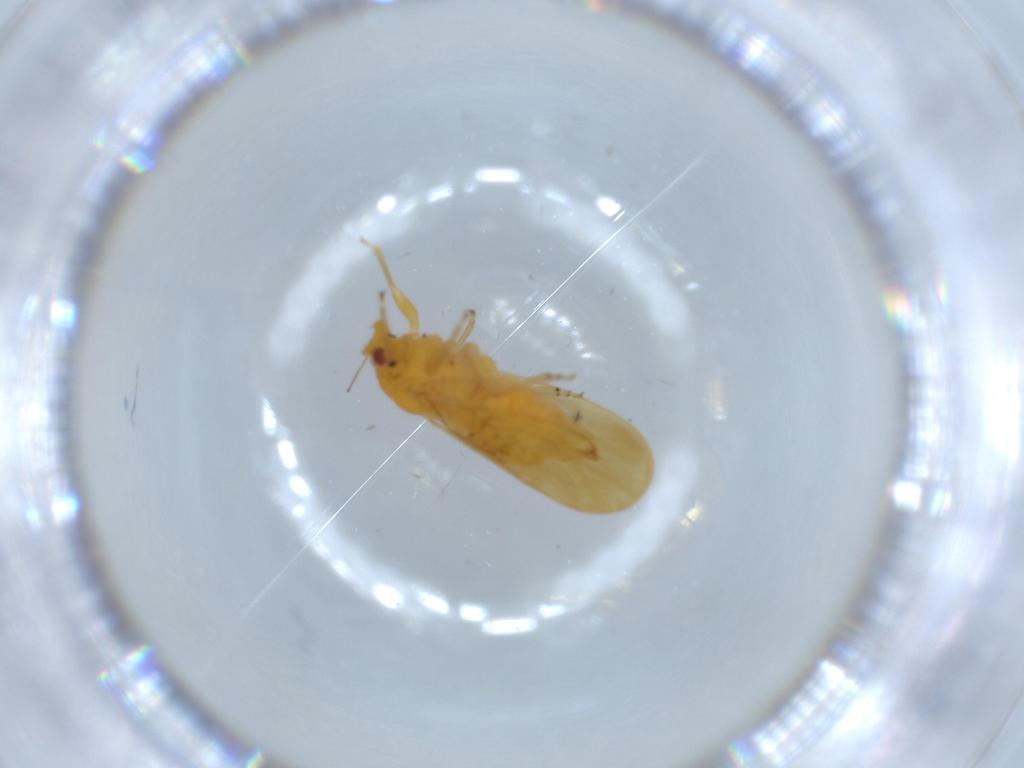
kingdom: Animalia
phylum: Arthropoda
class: Insecta
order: Hemiptera
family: Psyllidae
